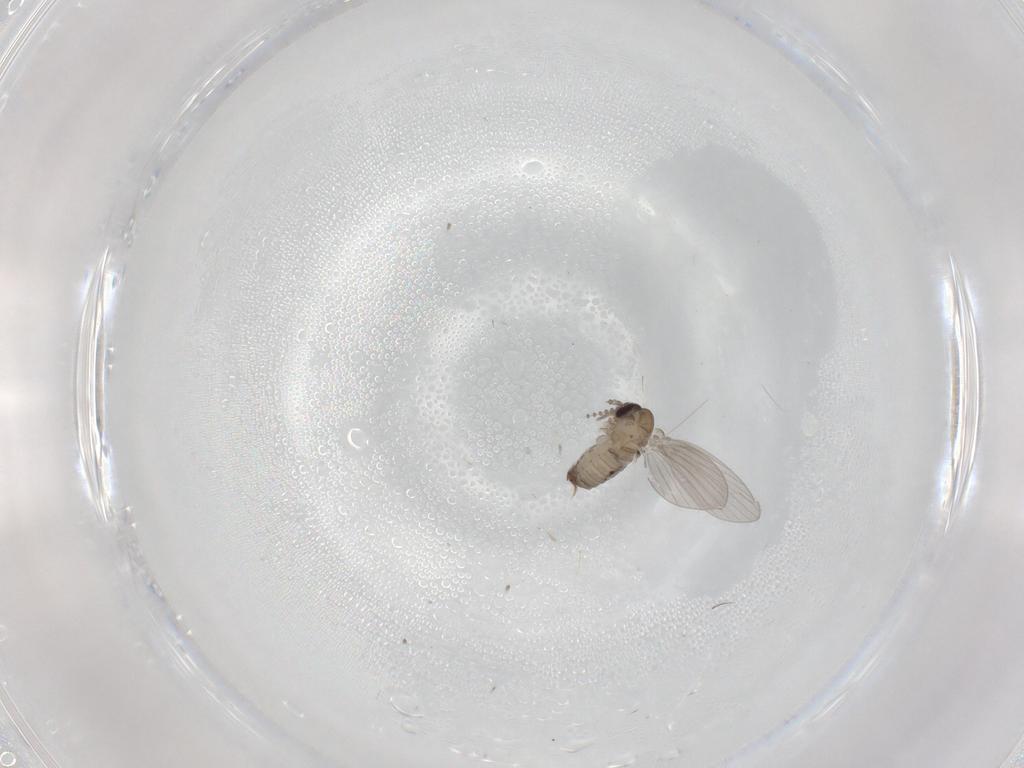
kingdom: Animalia
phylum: Arthropoda
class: Insecta
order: Diptera
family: Psychodidae
